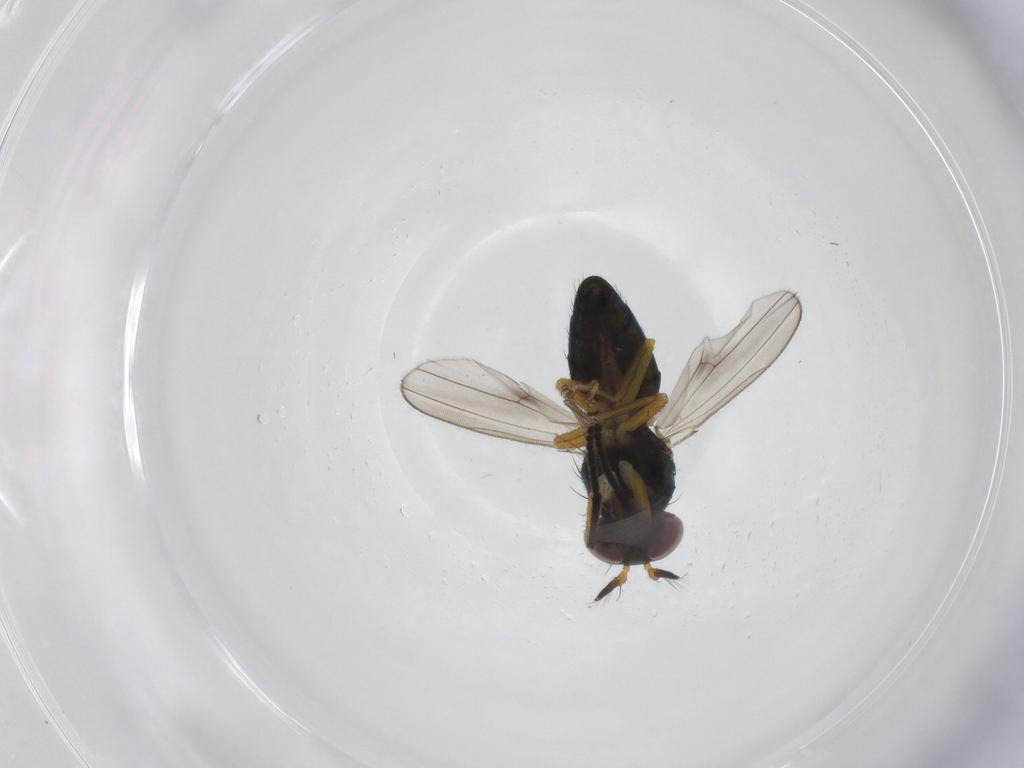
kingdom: Animalia
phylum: Arthropoda
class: Insecta
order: Diptera
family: Ephydridae
